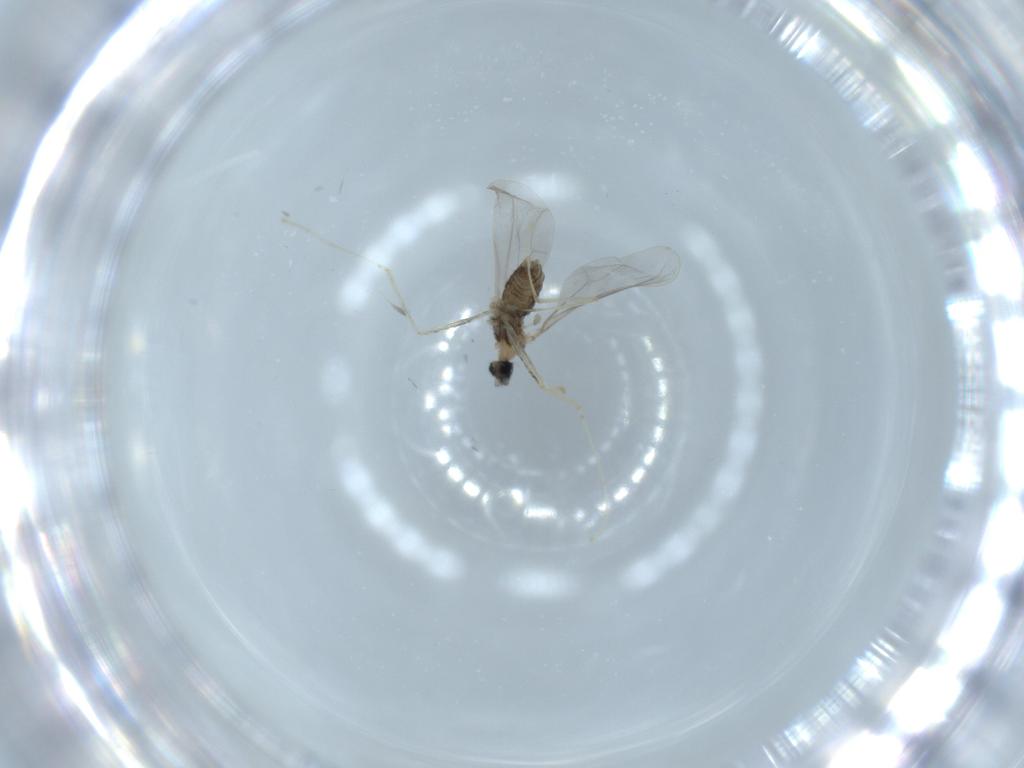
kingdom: Animalia
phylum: Arthropoda
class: Insecta
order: Diptera
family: Cecidomyiidae
